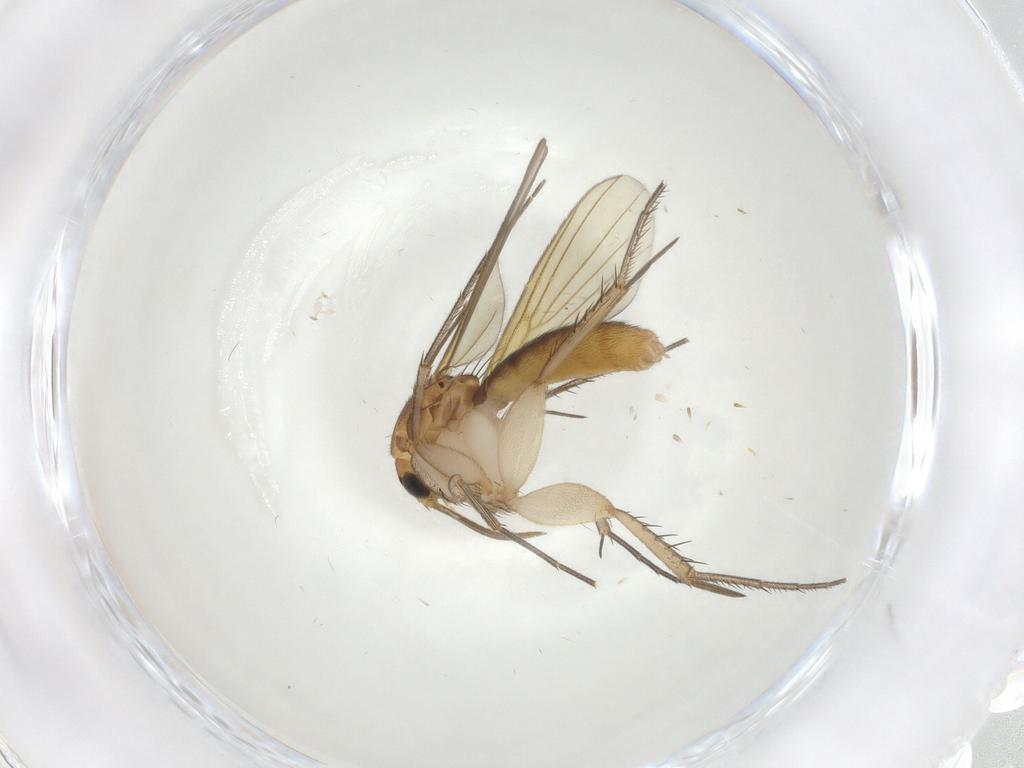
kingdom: Animalia
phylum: Arthropoda
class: Insecta
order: Diptera
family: Mycetophilidae
